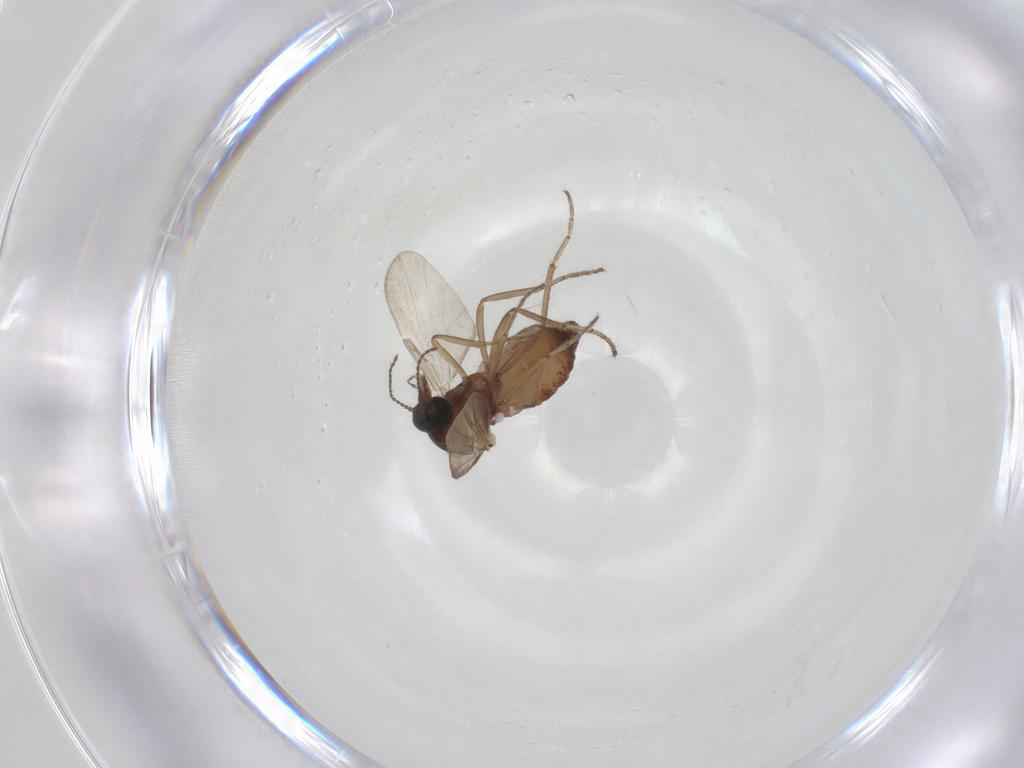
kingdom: Animalia
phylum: Arthropoda
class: Insecta
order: Diptera
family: Ceratopogonidae
